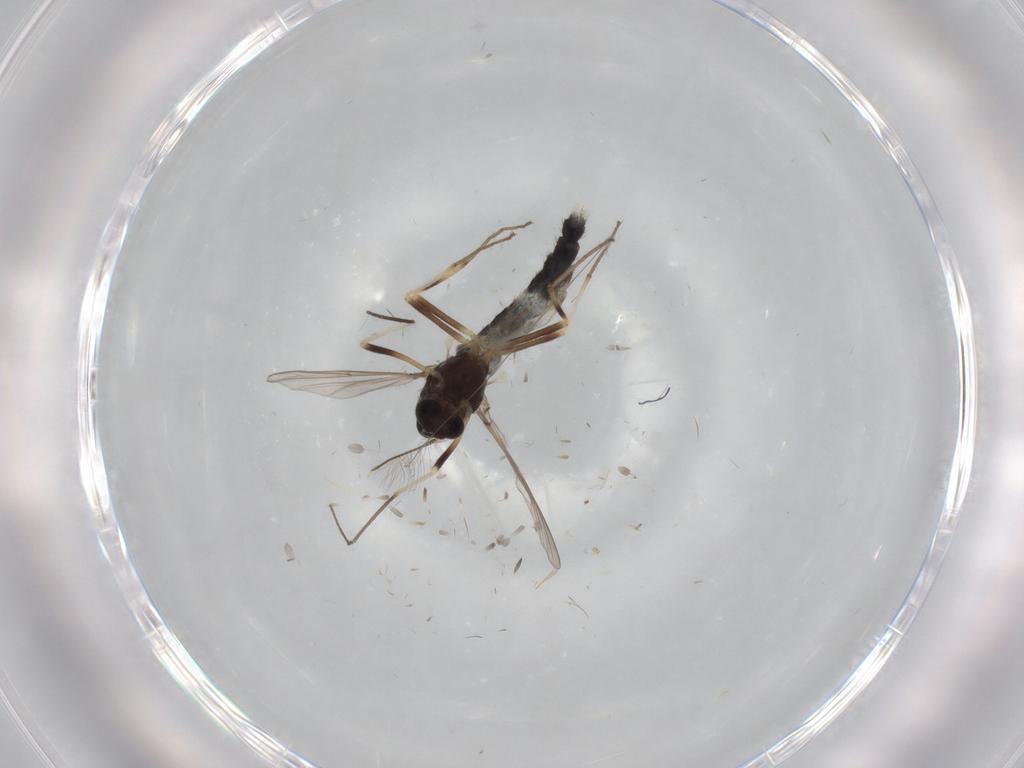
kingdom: Animalia
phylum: Arthropoda
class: Insecta
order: Diptera
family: Chironomidae
